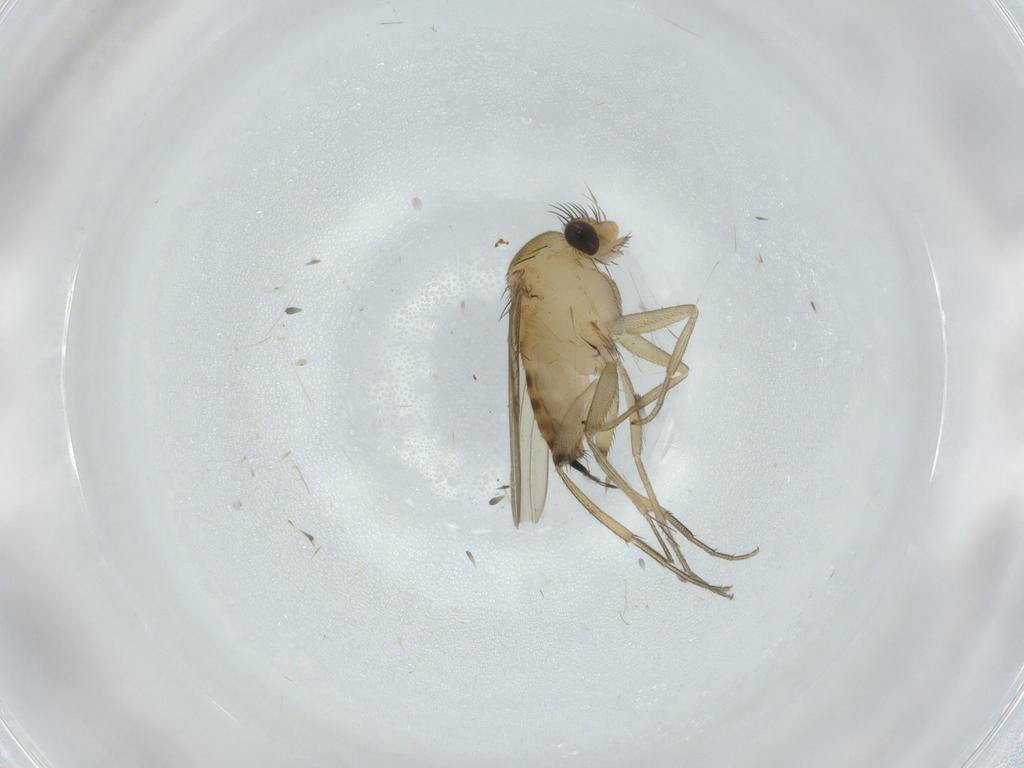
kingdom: Animalia
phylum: Arthropoda
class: Insecta
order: Diptera
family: Phoridae
